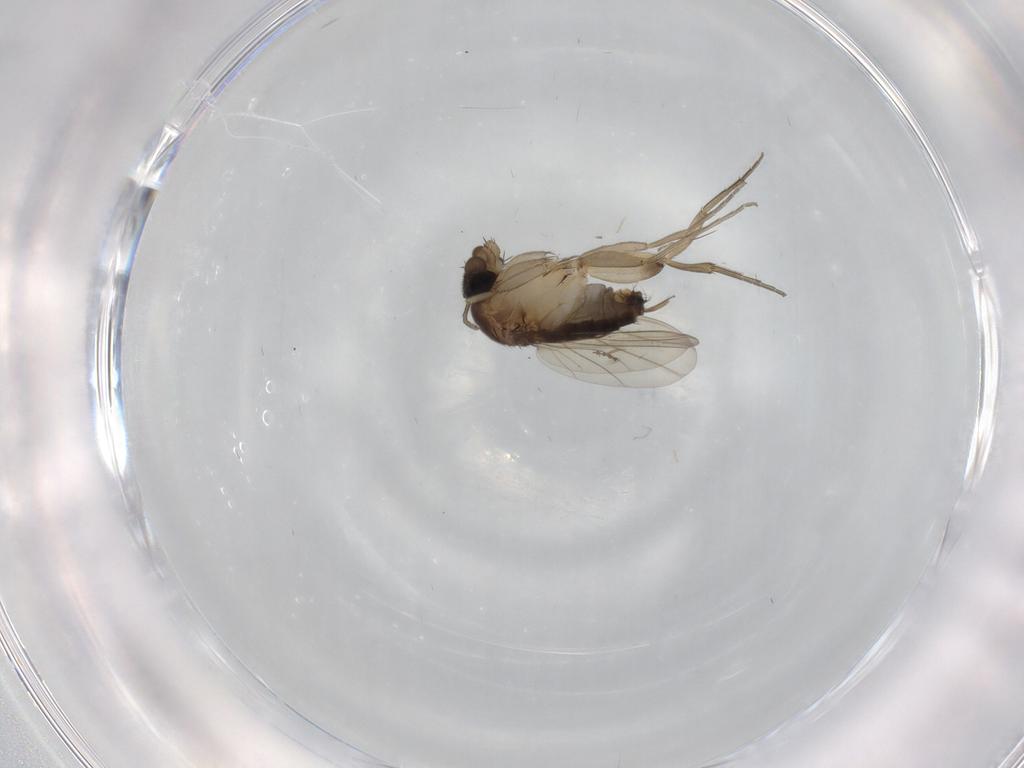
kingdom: Animalia
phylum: Arthropoda
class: Insecta
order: Diptera
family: Phoridae
